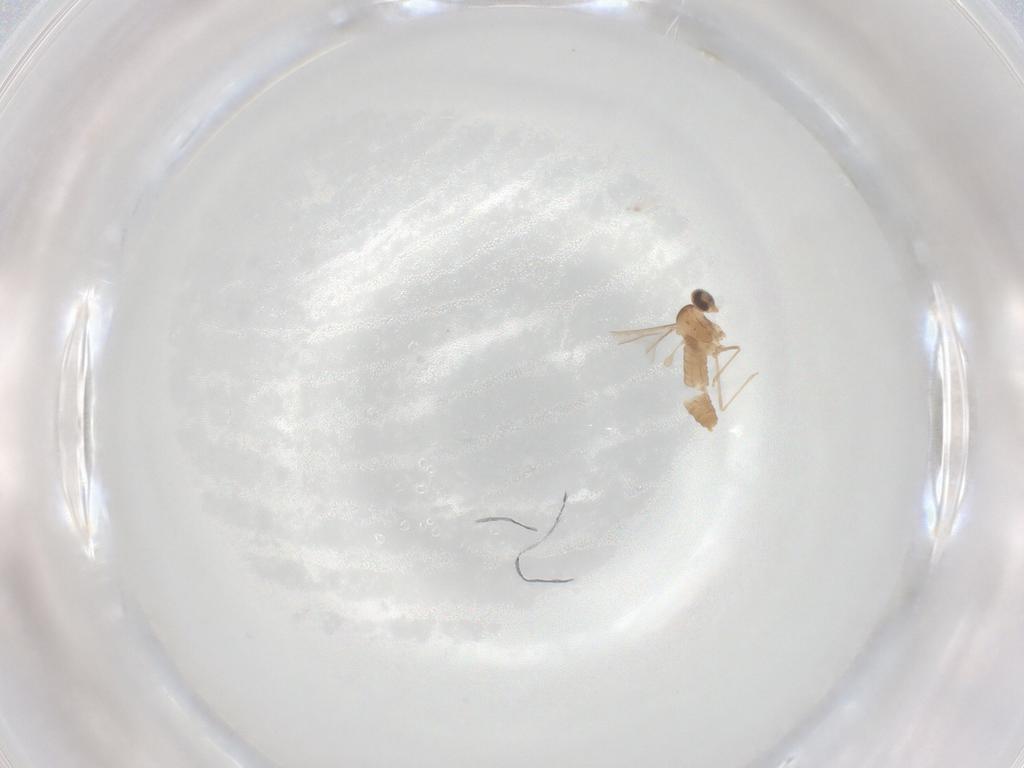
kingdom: Animalia
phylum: Arthropoda
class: Insecta
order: Diptera
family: Cecidomyiidae
